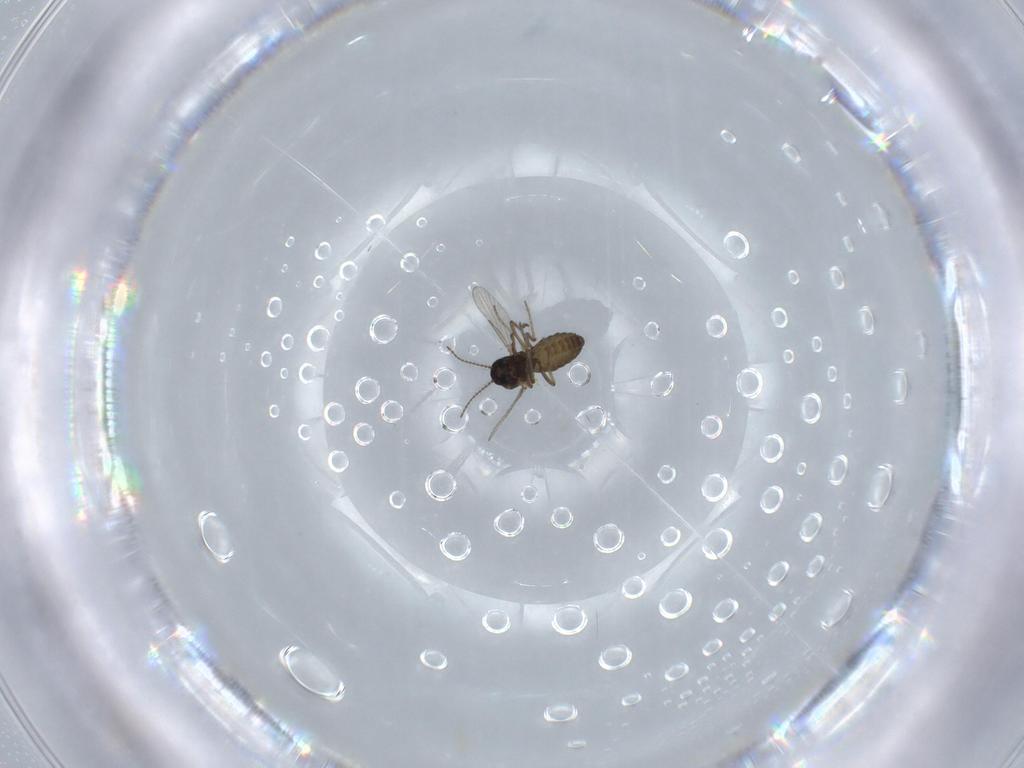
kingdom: Animalia
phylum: Arthropoda
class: Insecta
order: Diptera
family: Ceratopogonidae
